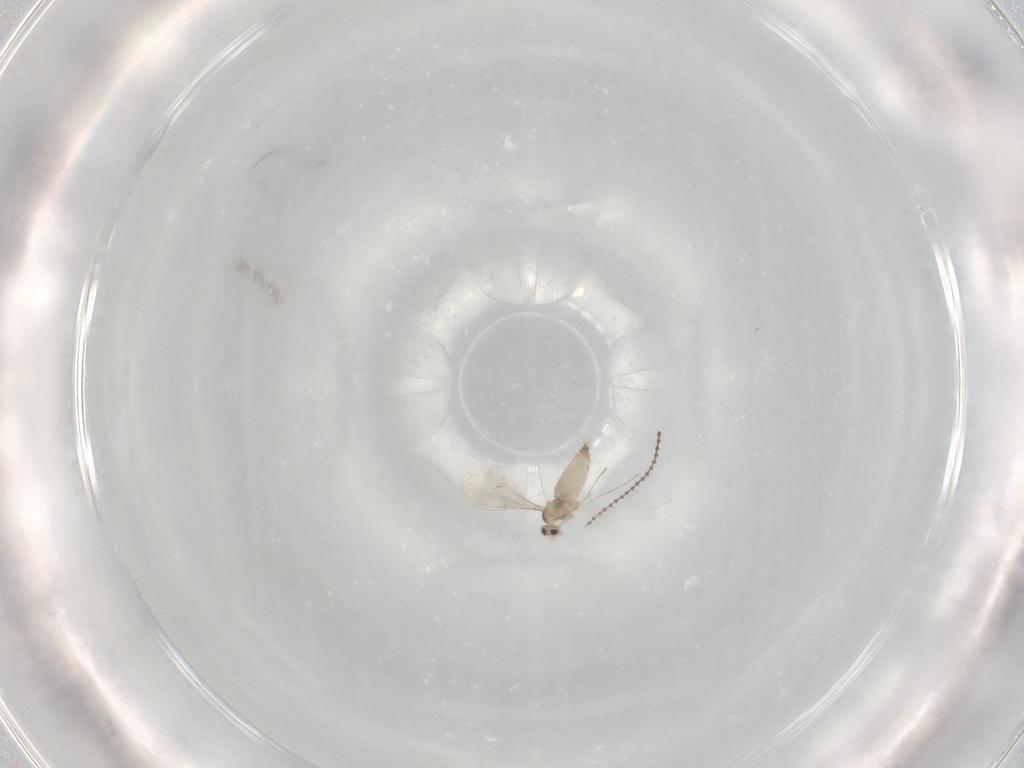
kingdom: Animalia
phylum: Arthropoda
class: Insecta
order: Diptera
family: Cecidomyiidae
